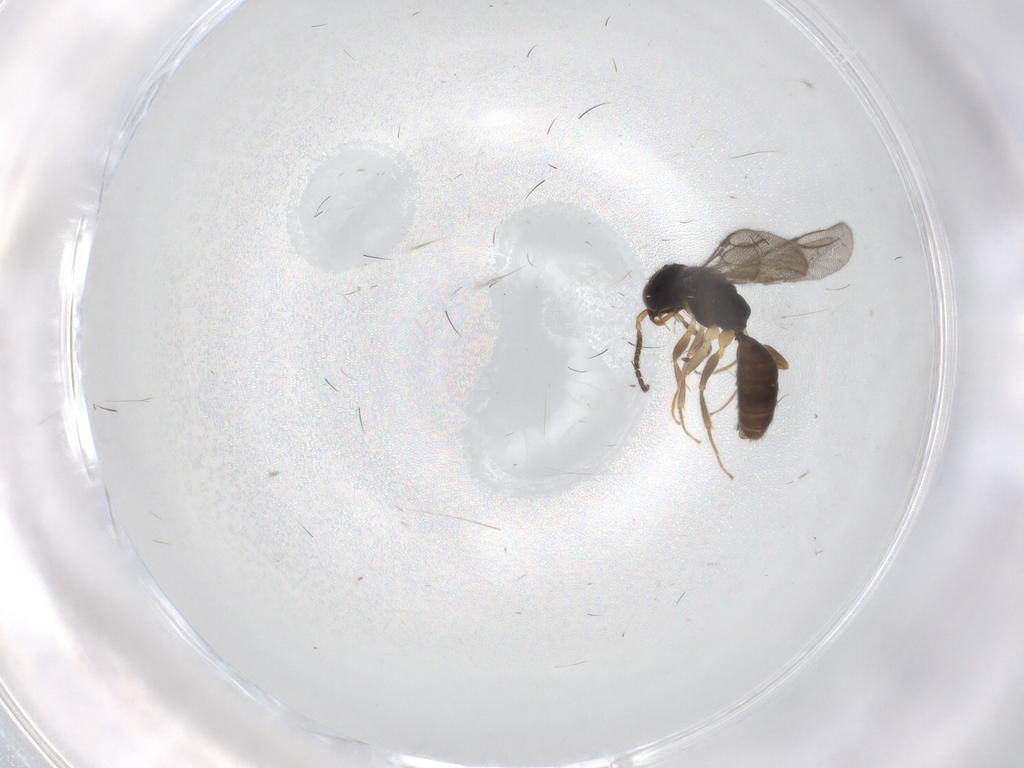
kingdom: Animalia
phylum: Arthropoda
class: Insecta
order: Hymenoptera
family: Bethylidae
